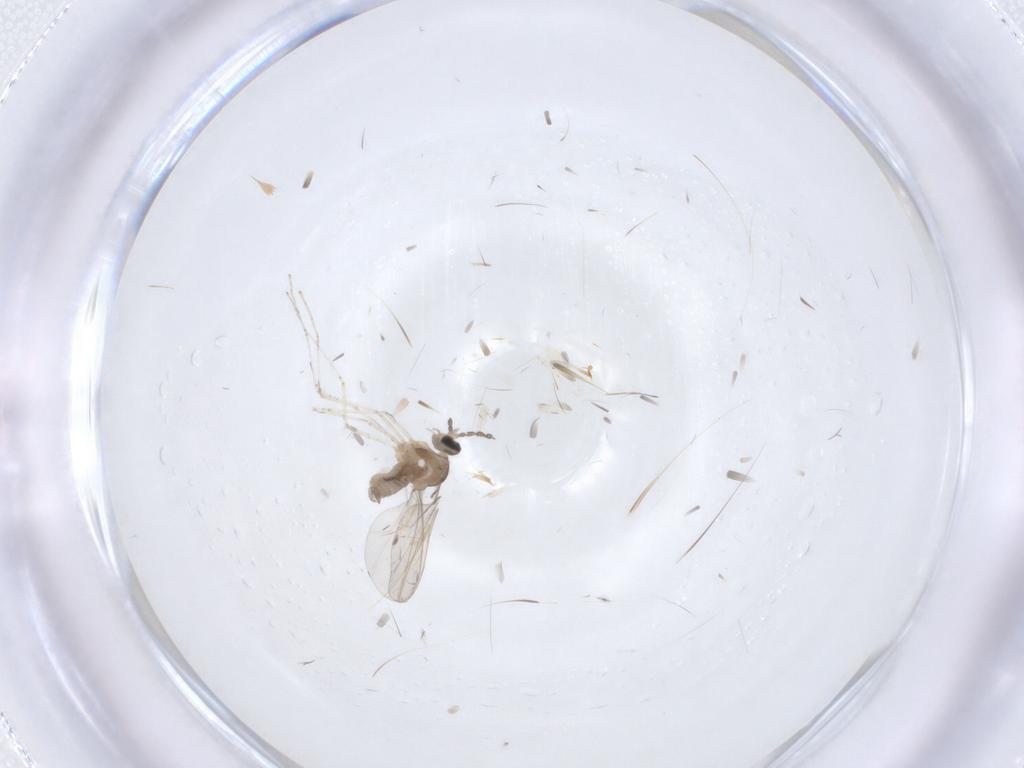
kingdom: Animalia
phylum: Arthropoda
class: Insecta
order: Diptera
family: Cecidomyiidae
